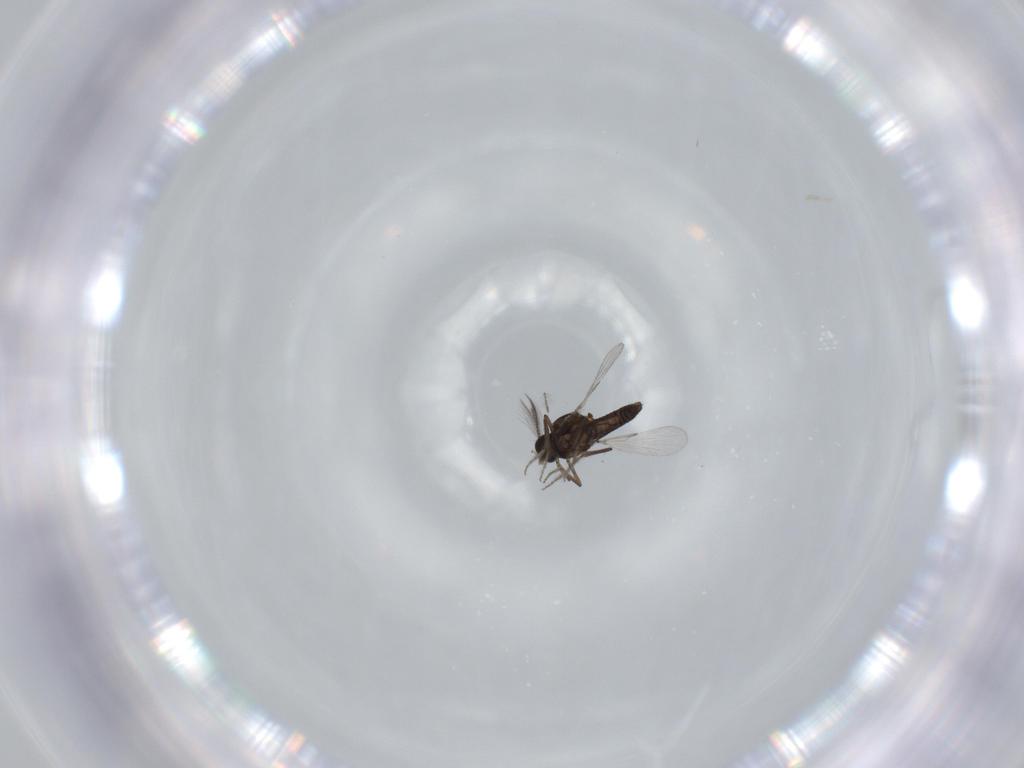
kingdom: Animalia
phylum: Arthropoda
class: Insecta
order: Diptera
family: Ceratopogonidae
